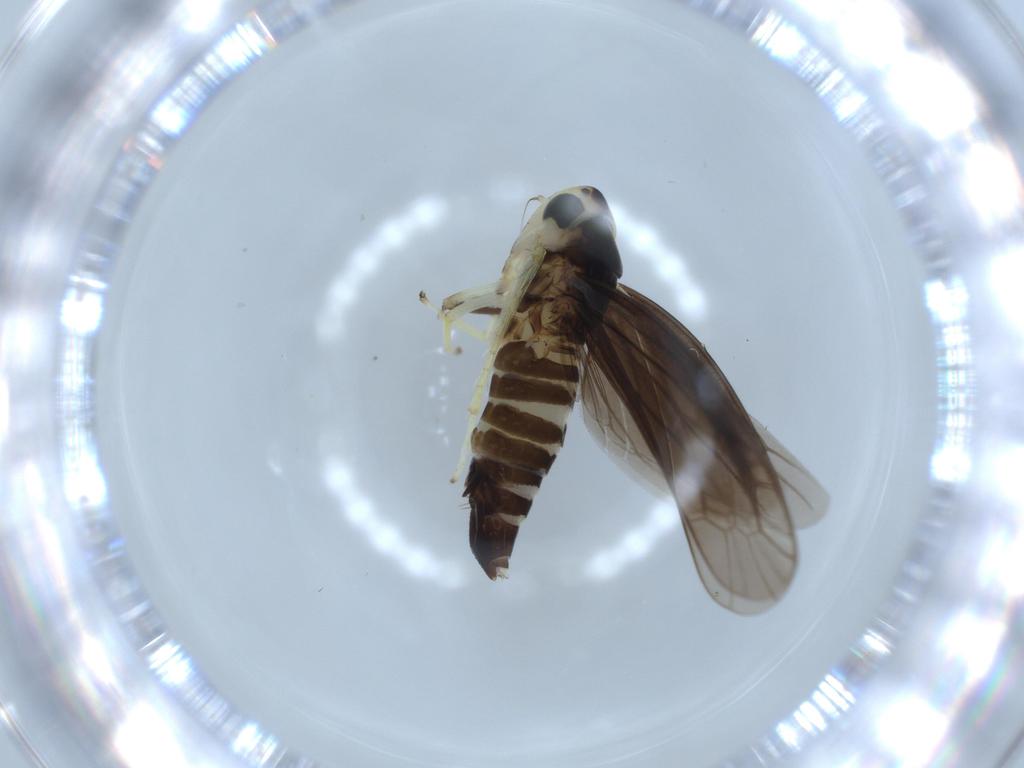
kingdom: Animalia
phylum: Arthropoda
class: Insecta
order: Hemiptera
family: Cicadellidae
